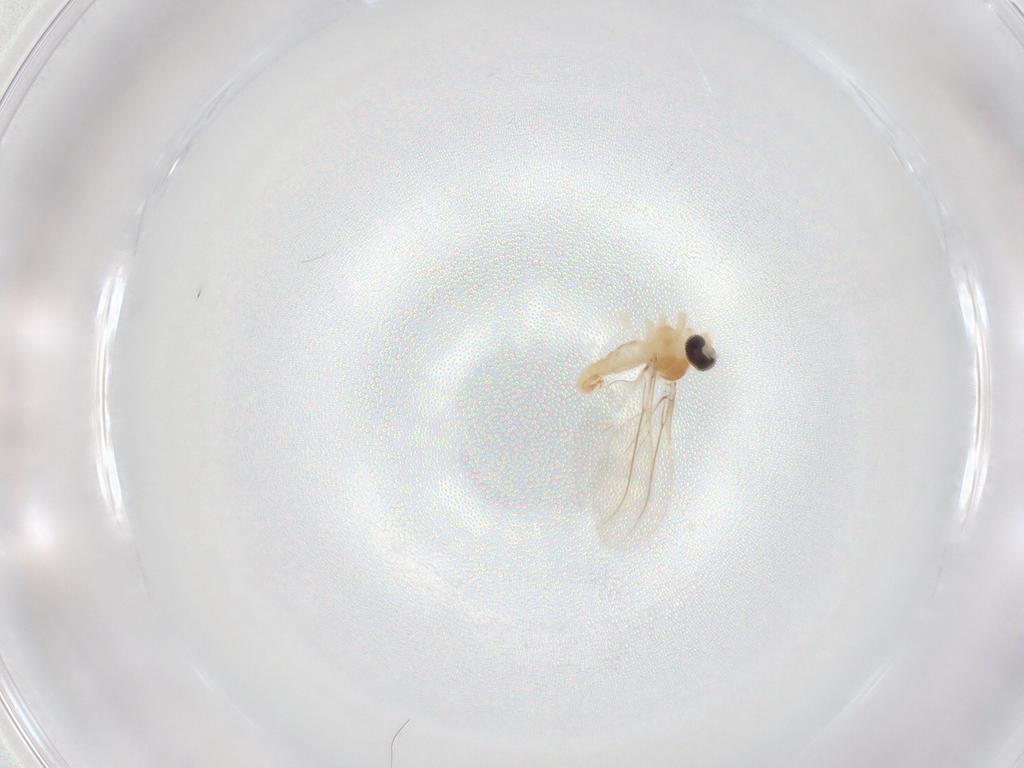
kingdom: Animalia
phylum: Arthropoda
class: Insecta
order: Diptera
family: Cecidomyiidae
